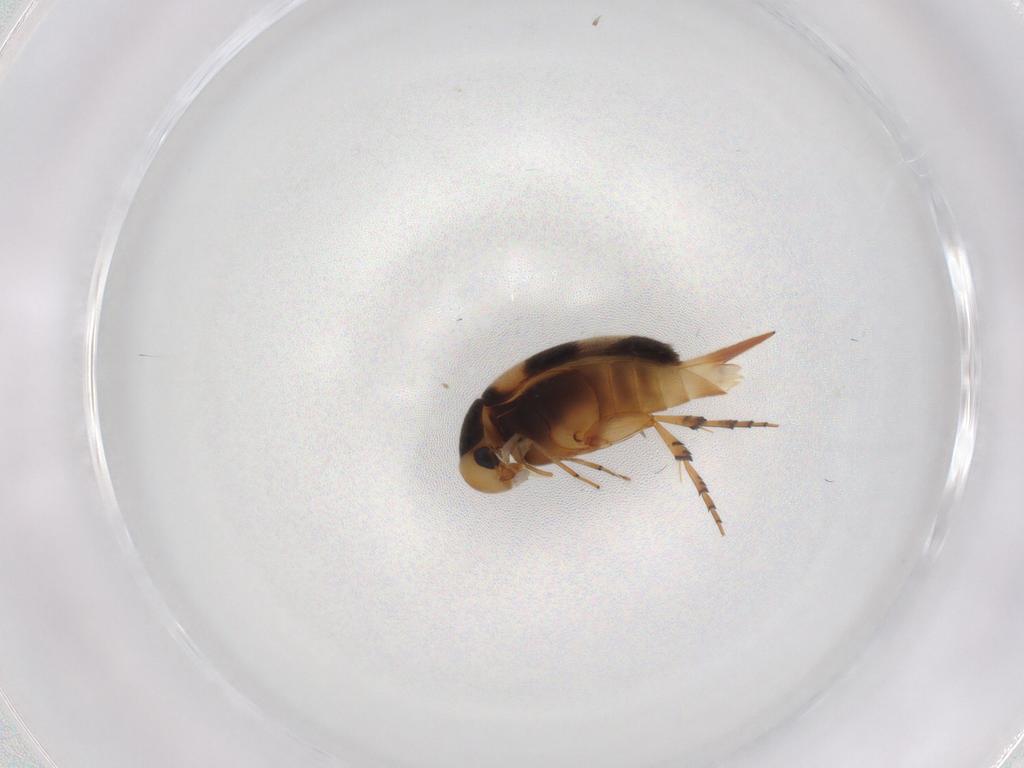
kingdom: Animalia
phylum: Arthropoda
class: Insecta
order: Coleoptera
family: Mordellidae
